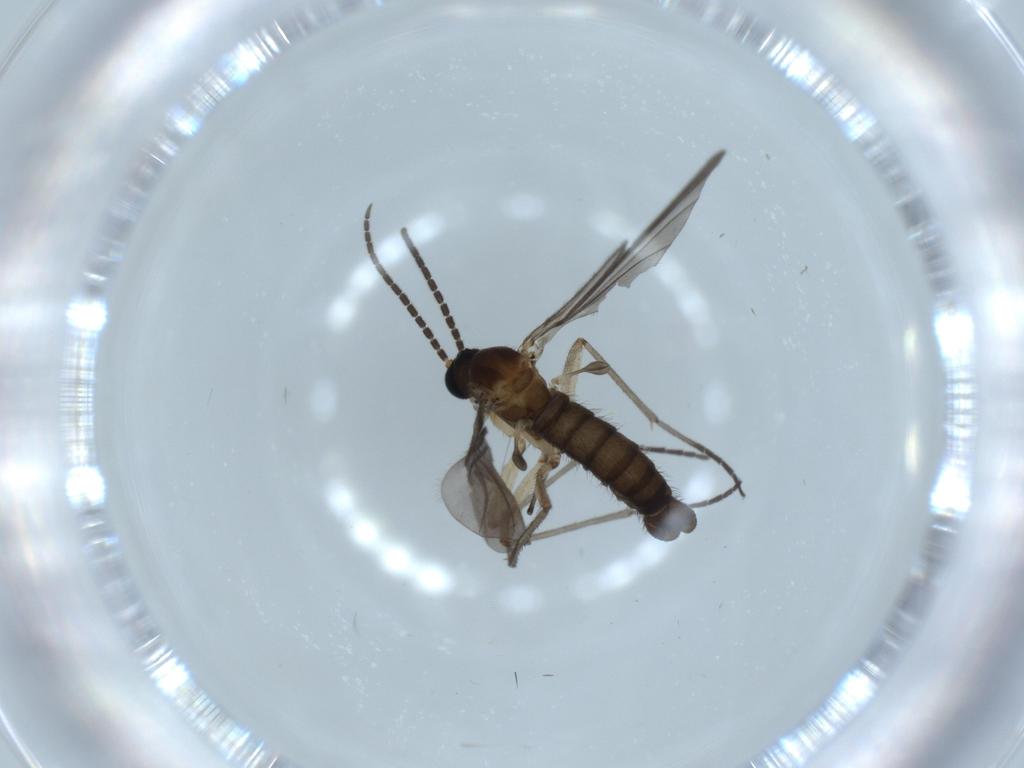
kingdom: Animalia
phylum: Arthropoda
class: Insecta
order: Diptera
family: Sciaridae
